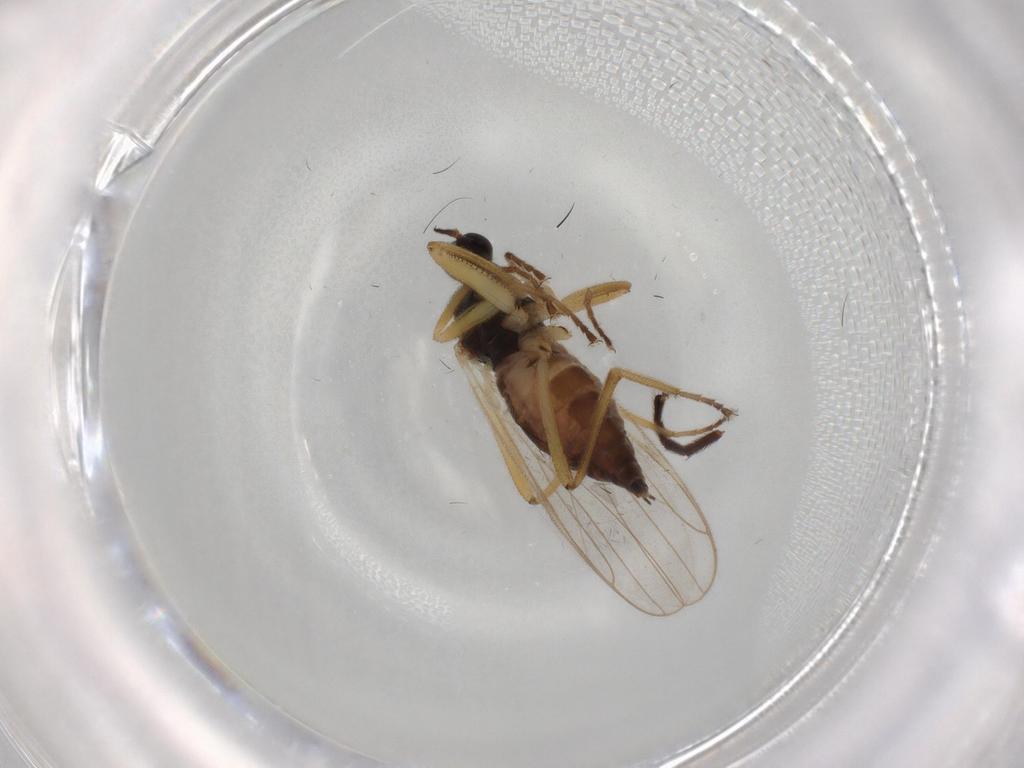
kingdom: Animalia
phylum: Arthropoda
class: Insecta
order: Diptera
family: Empididae
